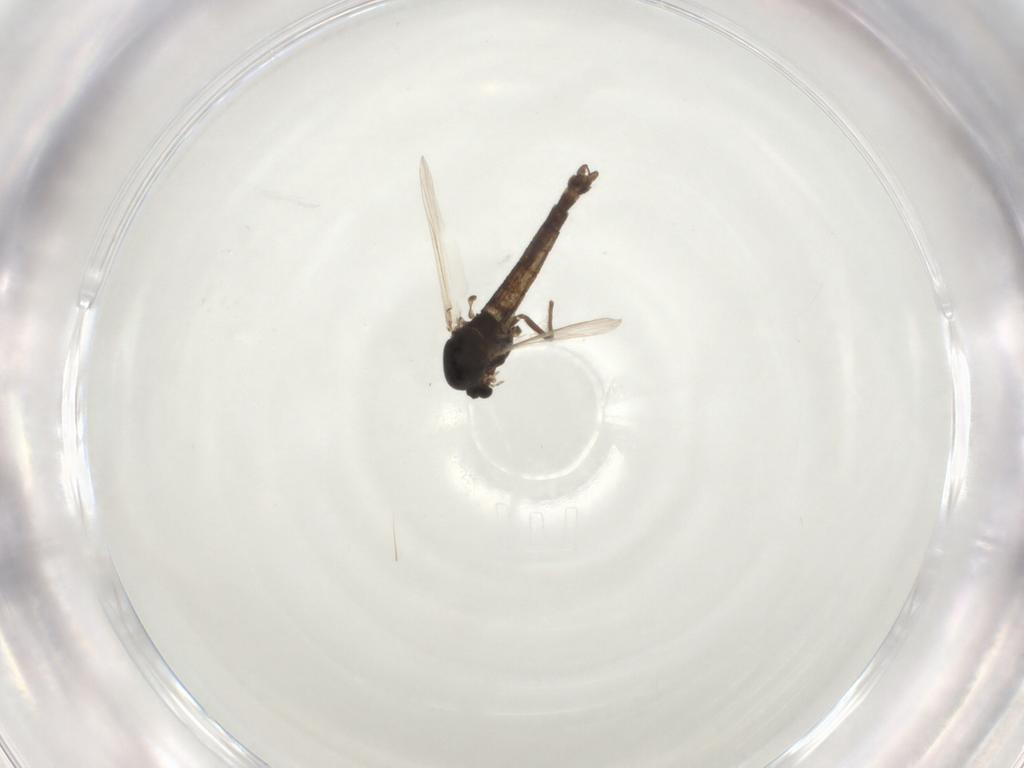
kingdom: Animalia
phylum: Arthropoda
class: Insecta
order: Diptera
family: Chironomidae
